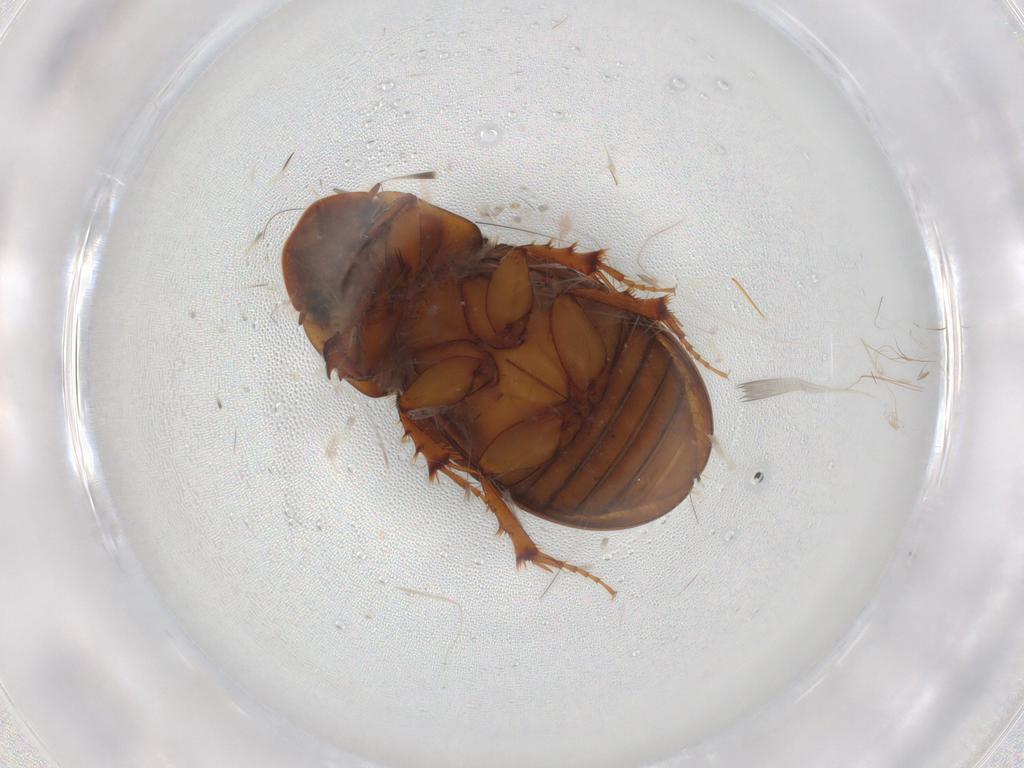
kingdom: Animalia
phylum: Arthropoda
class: Insecta
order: Coleoptera
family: Scarabaeidae
